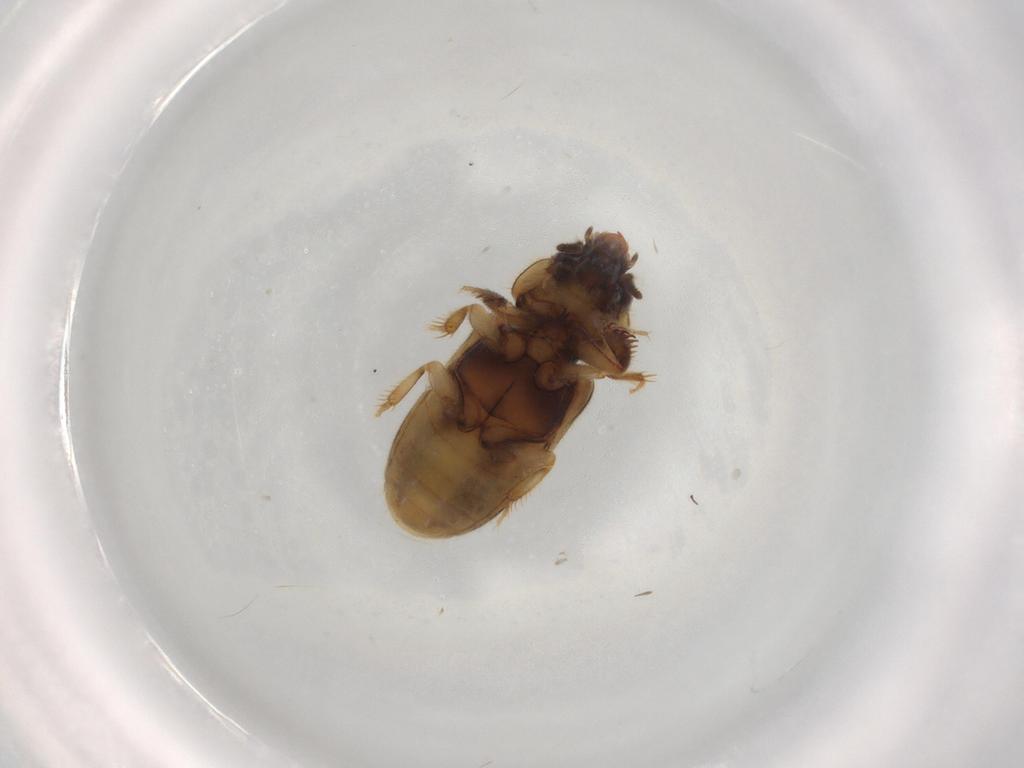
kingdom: Animalia
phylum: Arthropoda
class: Insecta
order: Coleoptera
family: Heteroceridae
